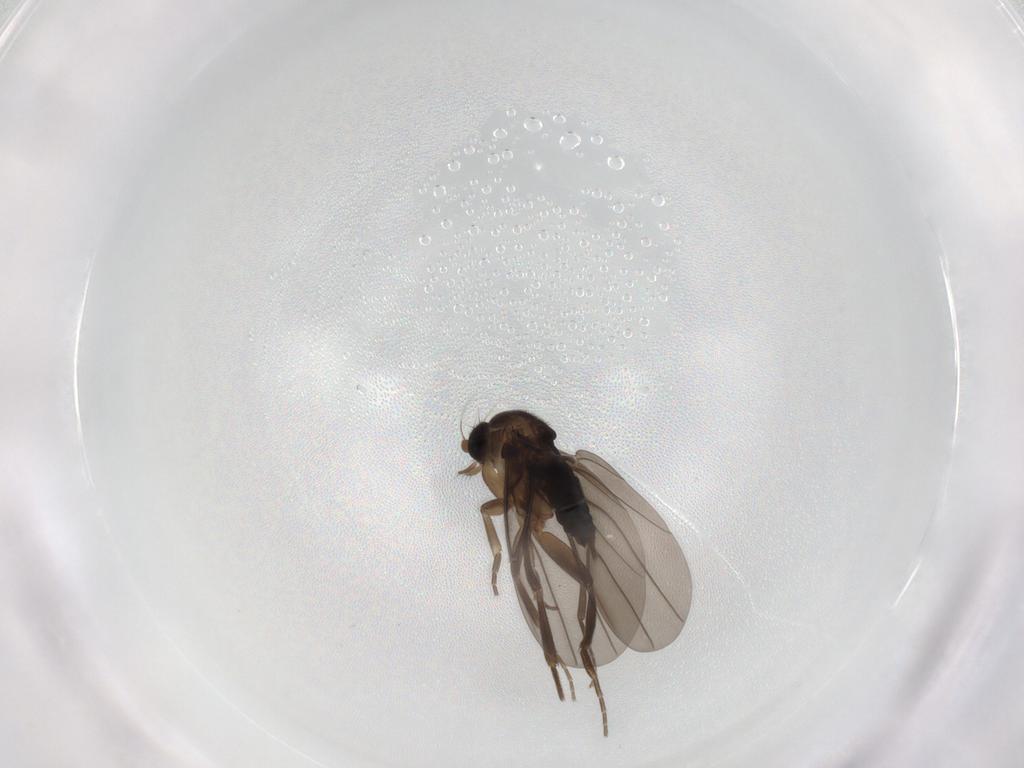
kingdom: Animalia
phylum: Arthropoda
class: Insecta
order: Diptera
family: Phoridae
